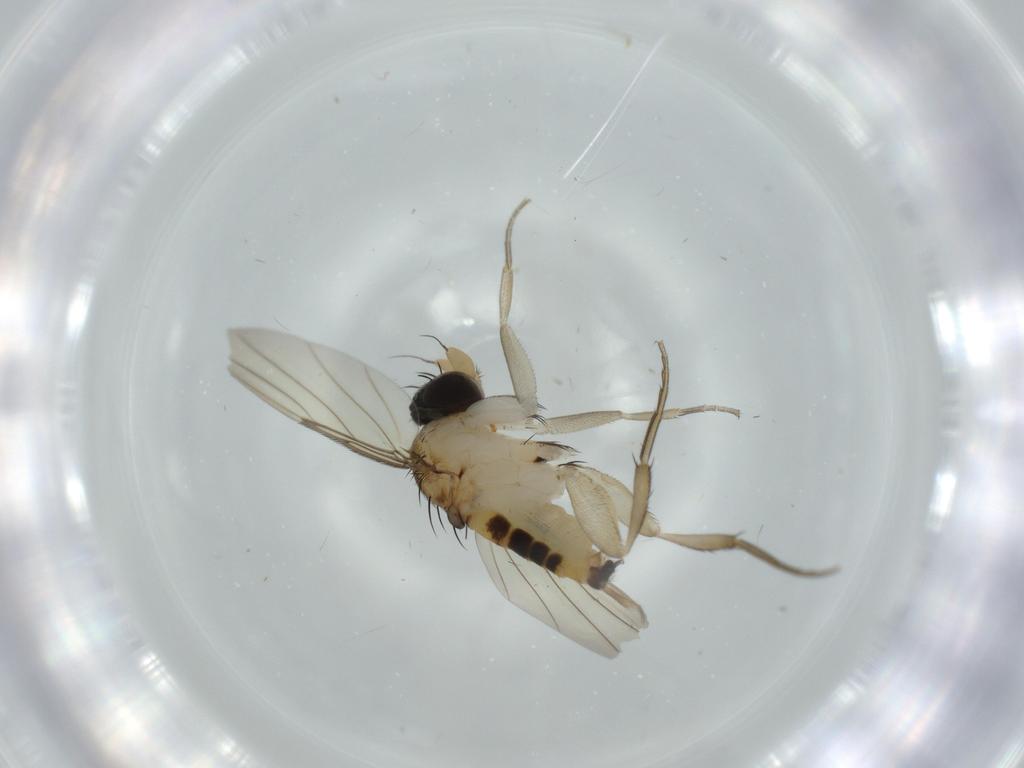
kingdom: Animalia
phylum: Arthropoda
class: Insecta
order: Diptera
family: Phoridae
